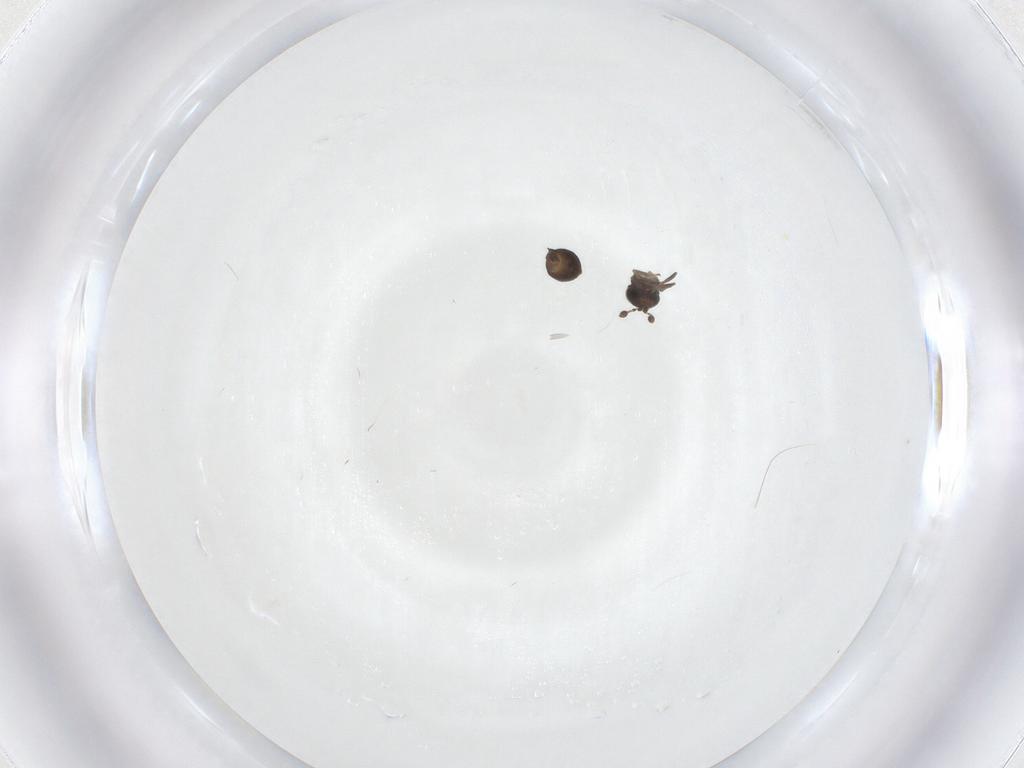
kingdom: Animalia
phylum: Arthropoda
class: Insecta
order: Hymenoptera
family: Scelionidae
